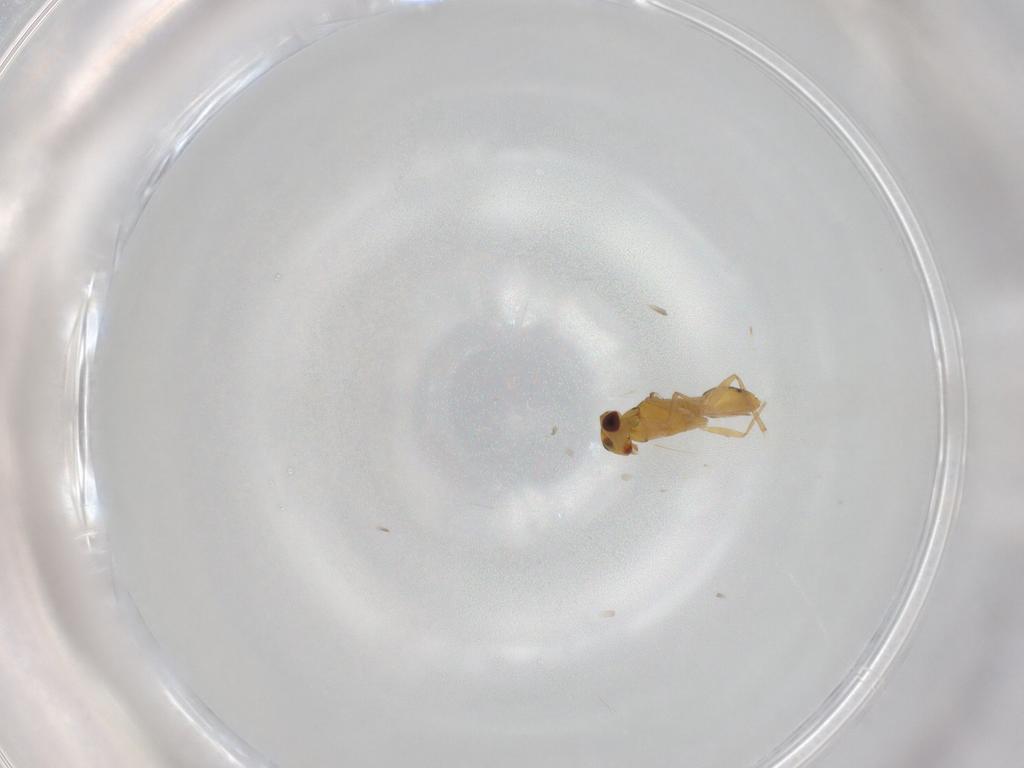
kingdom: Animalia
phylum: Arthropoda
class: Insecta
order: Hymenoptera
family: Eulophidae
